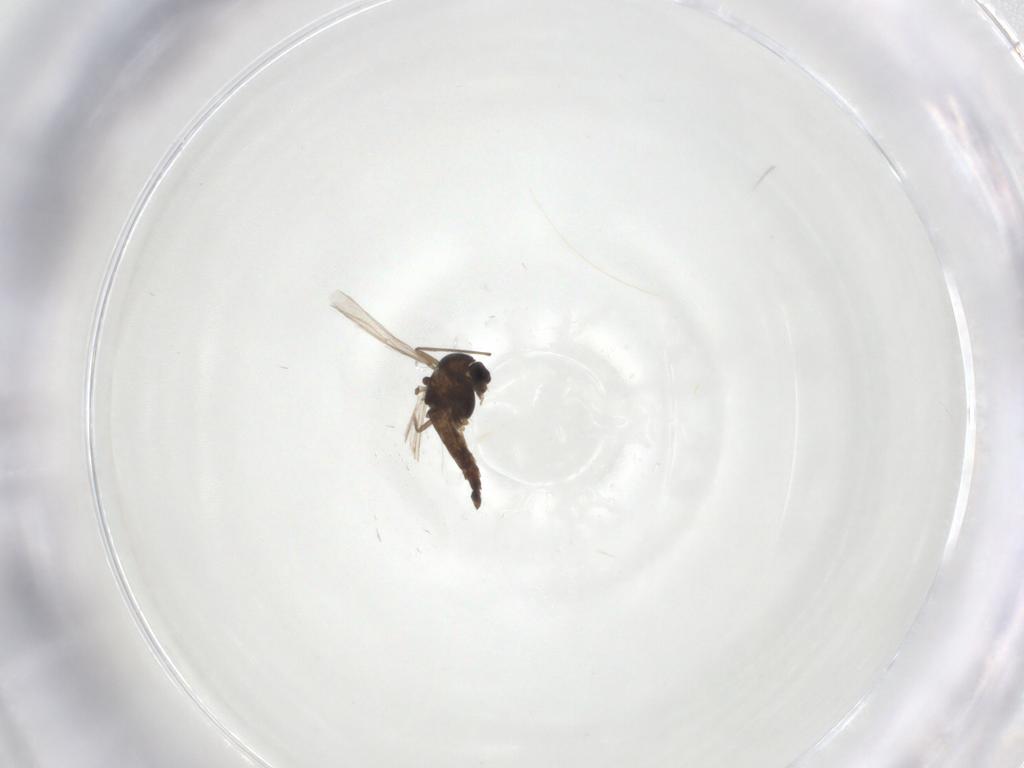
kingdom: Animalia
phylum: Arthropoda
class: Insecta
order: Diptera
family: Chironomidae
